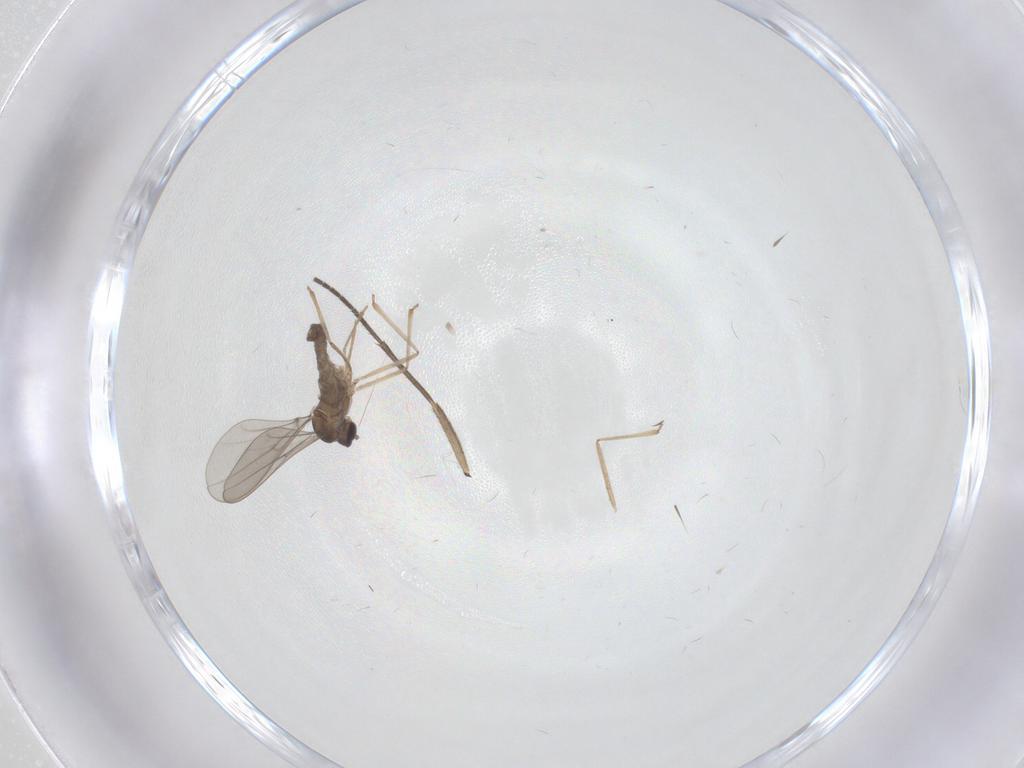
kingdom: Animalia
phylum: Arthropoda
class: Insecta
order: Diptera
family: Cecidomyiidae
